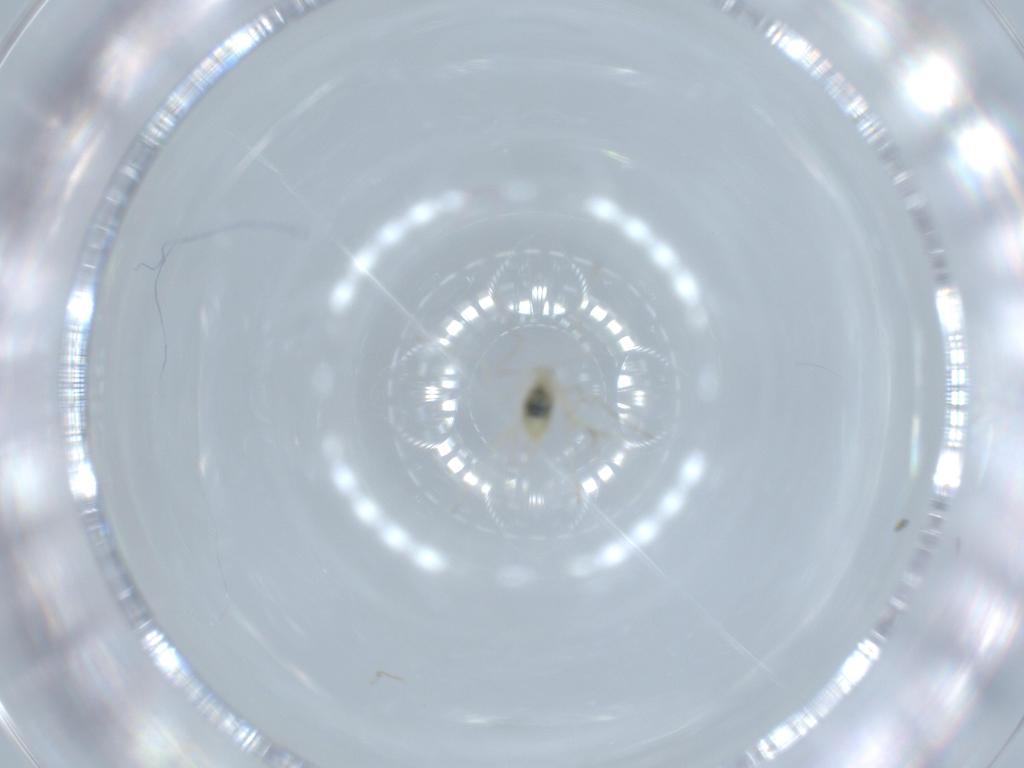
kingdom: Animalia
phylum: Arthropoda
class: Insecta
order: Diptera
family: Cecidomyiidae
